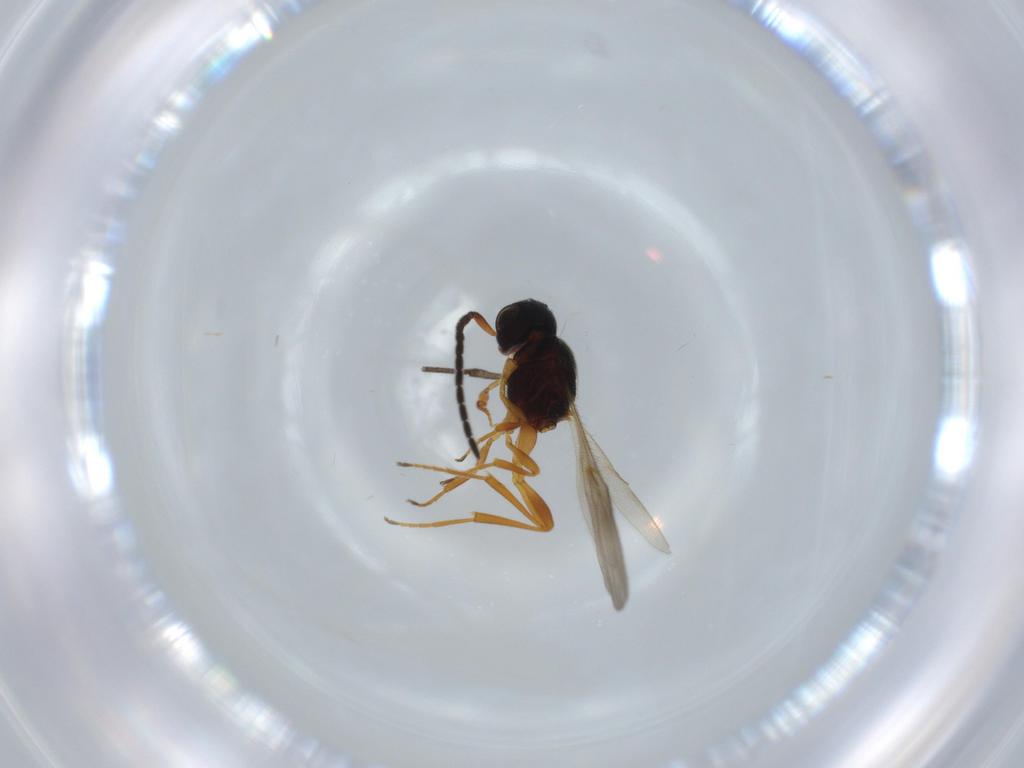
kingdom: Animalia
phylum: Arthropoda
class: Insecta
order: Hymenoptera
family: Scelionidae
